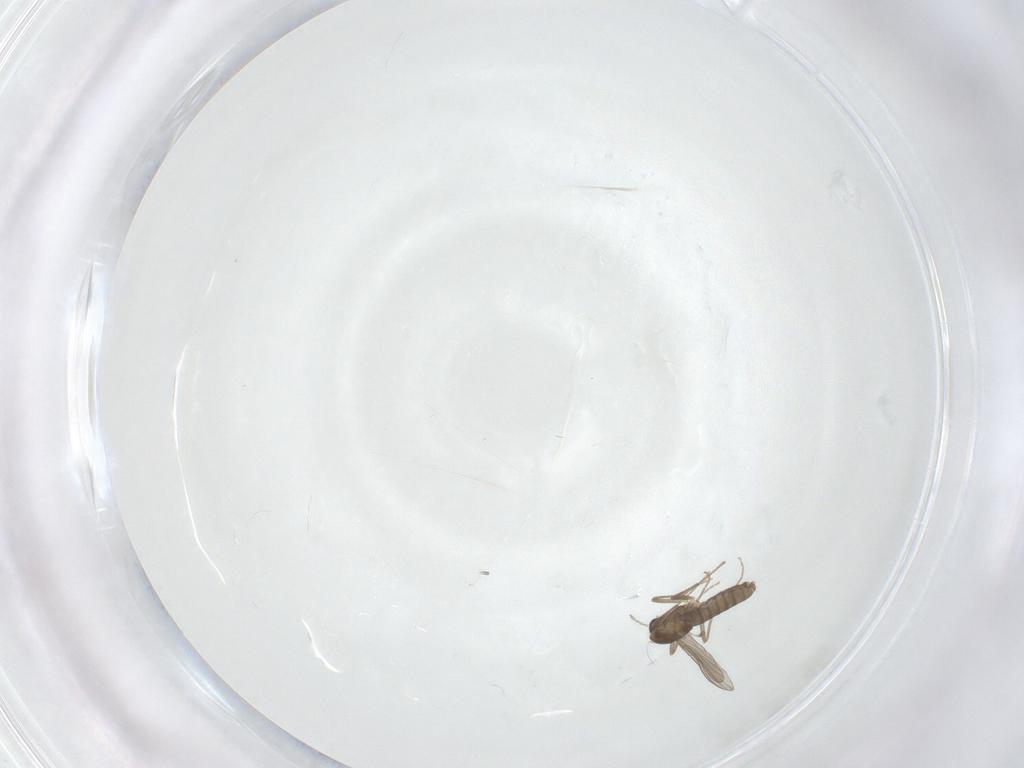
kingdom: Animalia
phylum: Arthropoda
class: Insecta
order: Diptera
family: Chironomidae
